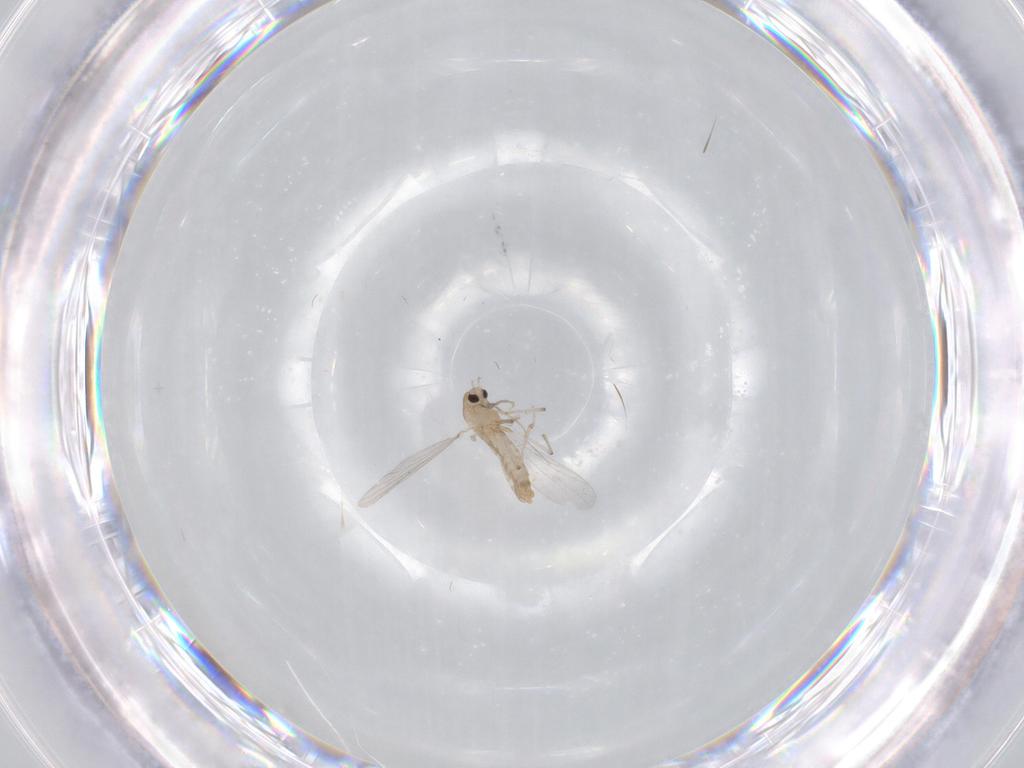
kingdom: Animalia
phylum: Arthropoda
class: Insecta
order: Diptera
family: Chironomidae
